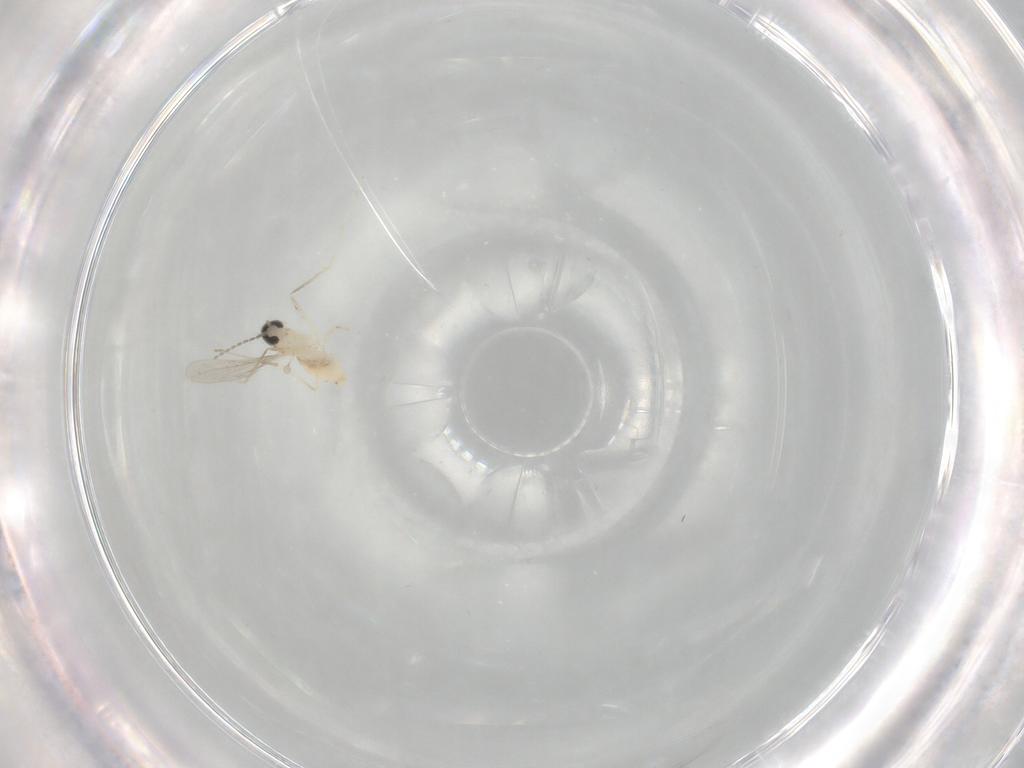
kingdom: Animalia
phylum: Arthropoda
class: Insecta
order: Diptera
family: Cecidomyiidae
